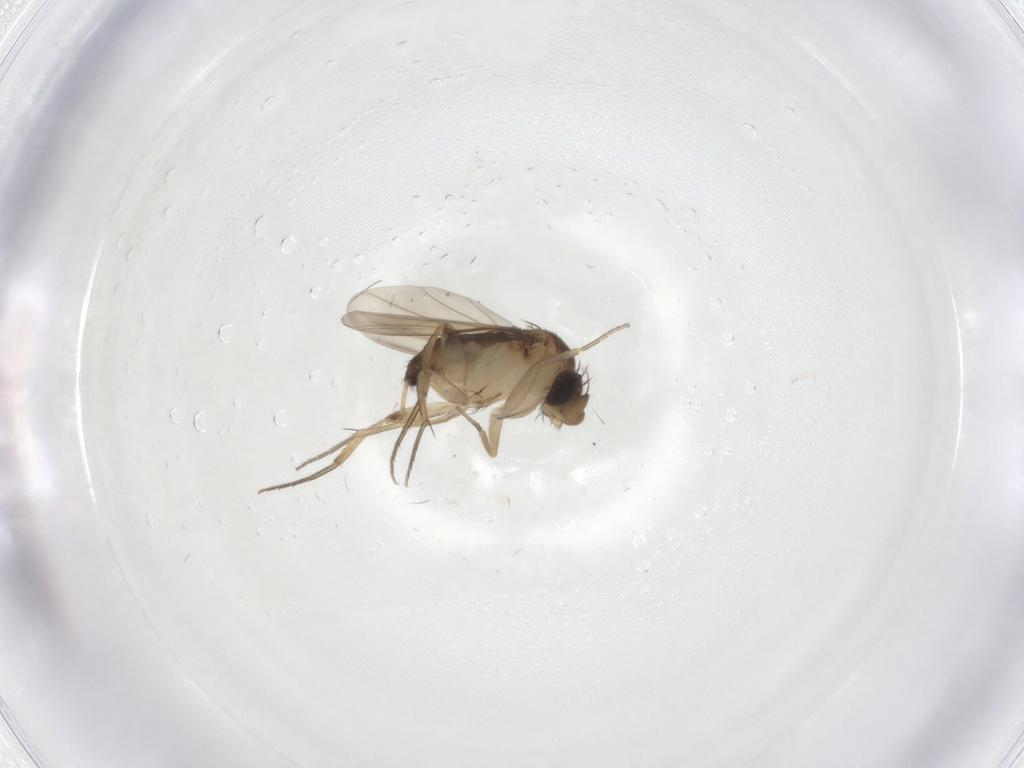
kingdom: Animalia
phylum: Arthropoda
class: Insecta
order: Diptera
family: Phoridae
